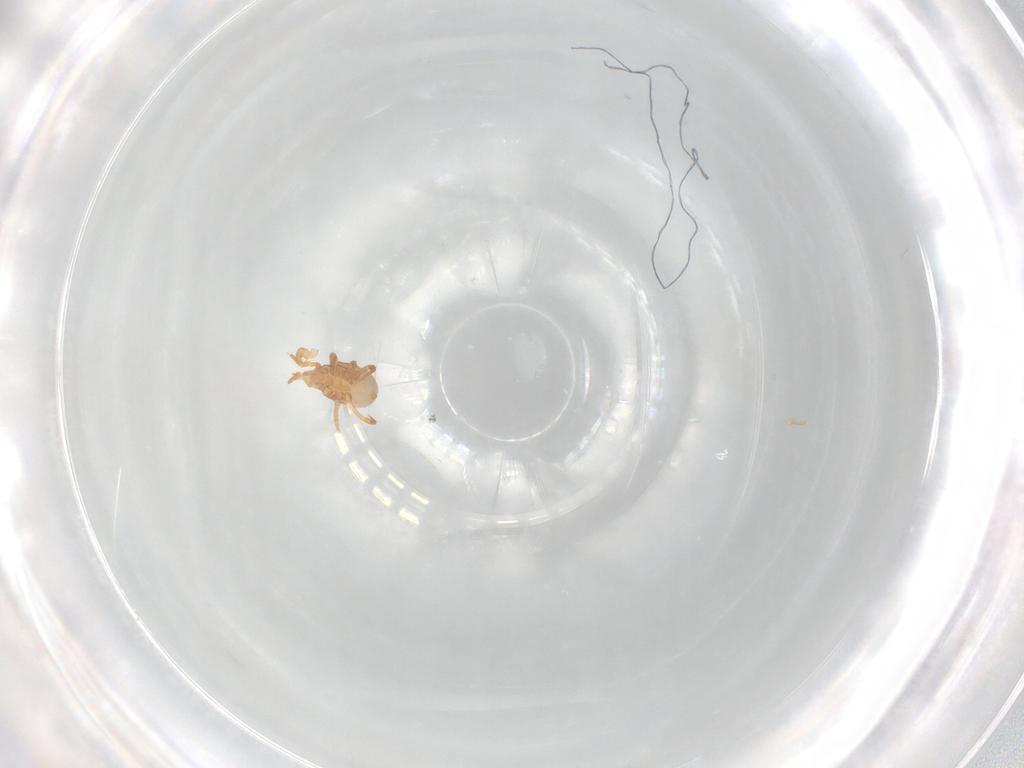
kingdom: Animalia
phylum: Arthropoda
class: Arachnida
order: Mesostigmata
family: Parasitidae
